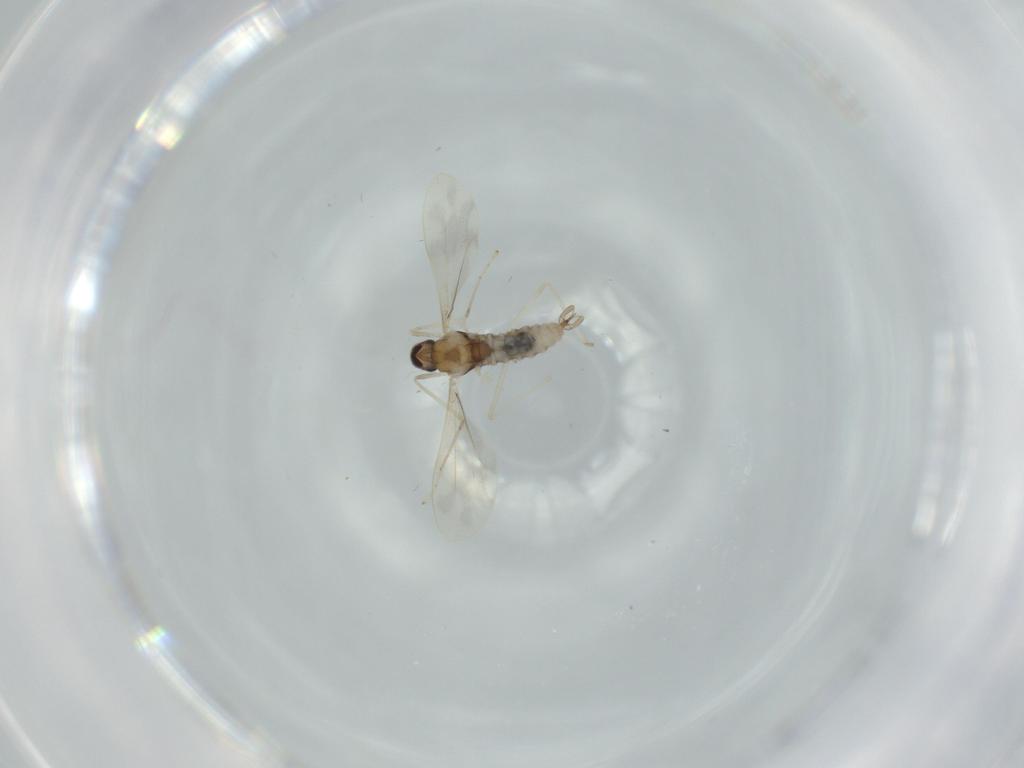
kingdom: Animalia
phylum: Arthropoda
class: Insecta
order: Diptera
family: Cecidomyiidae
